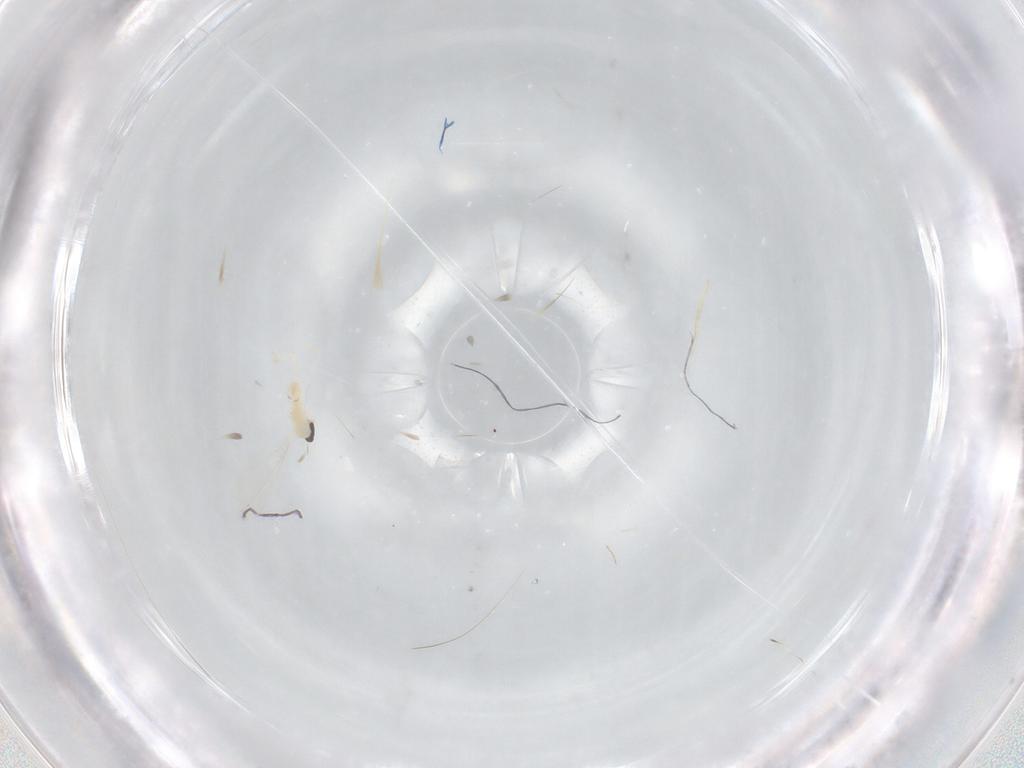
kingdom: Animalia
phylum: Arthropoda
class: Insecta
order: Diptera
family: Cecidomyiidae
